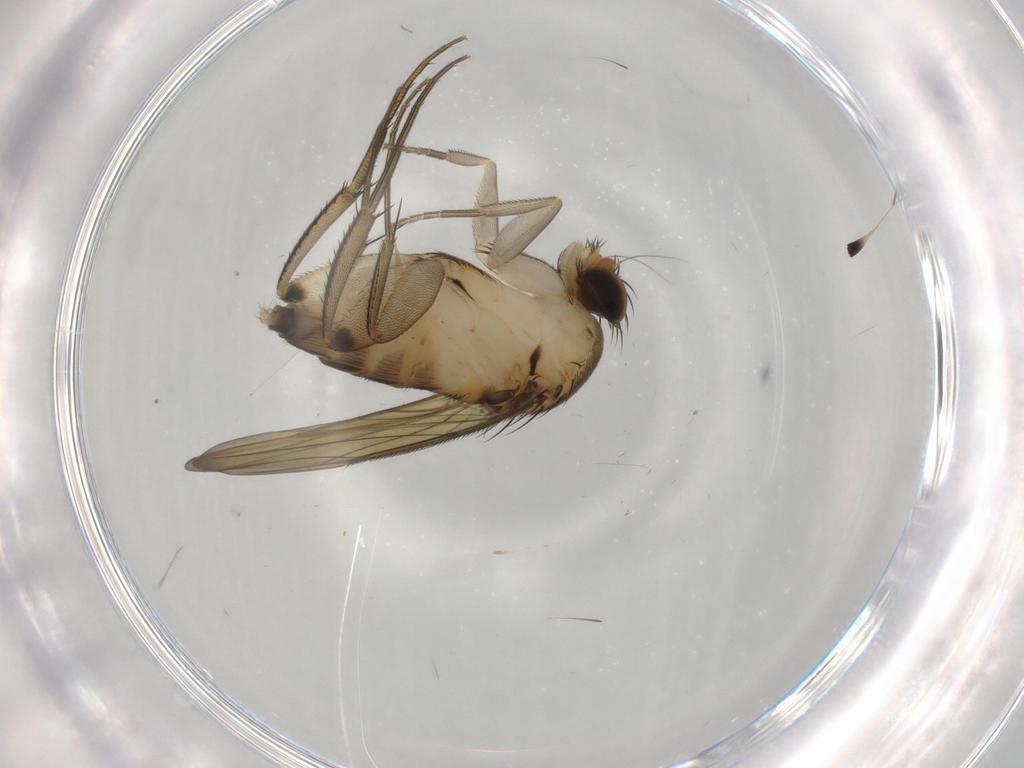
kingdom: Animalia
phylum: Arthropoda
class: Insecta
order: Diptera
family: Phoridae
